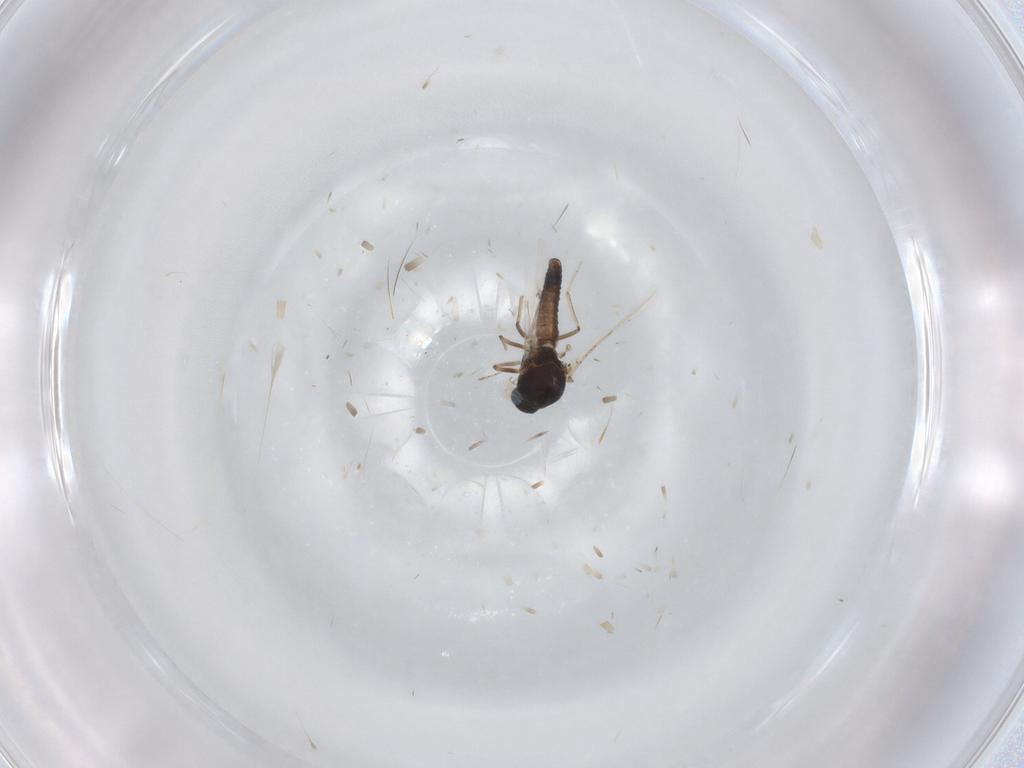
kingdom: Animalia
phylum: Arthropoda
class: Insecta
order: Diptera
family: Ceratopogonidae
